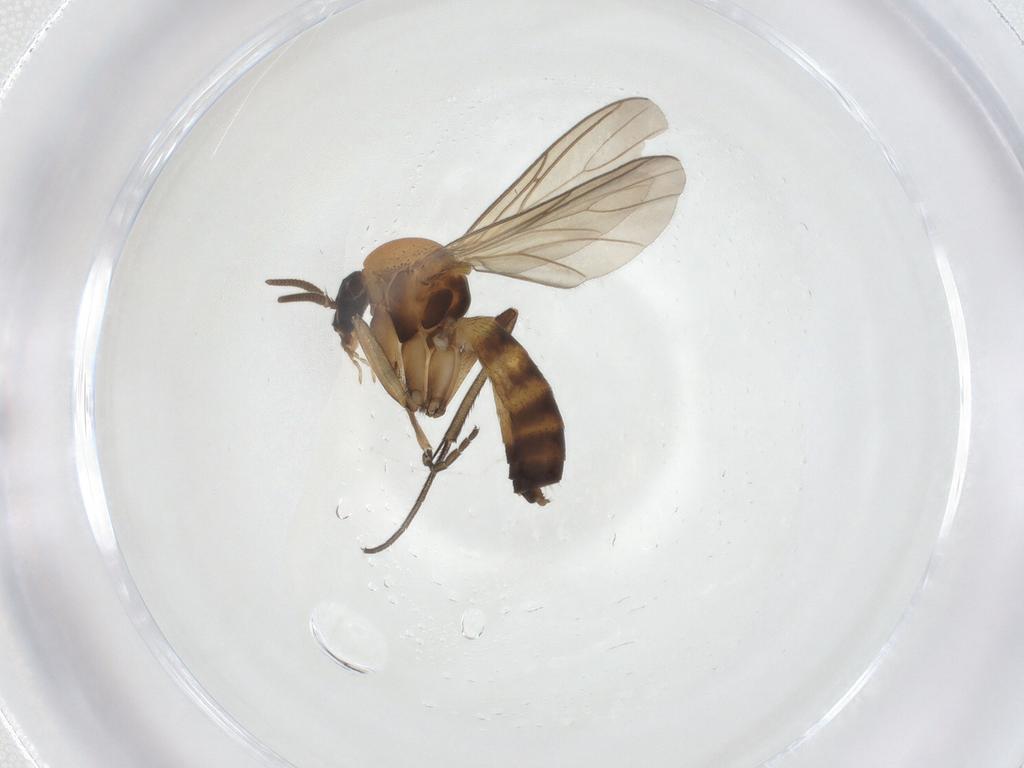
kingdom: Animalia
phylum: Arthropoda
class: Insecta
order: Diptera
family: Mycetophilidae
